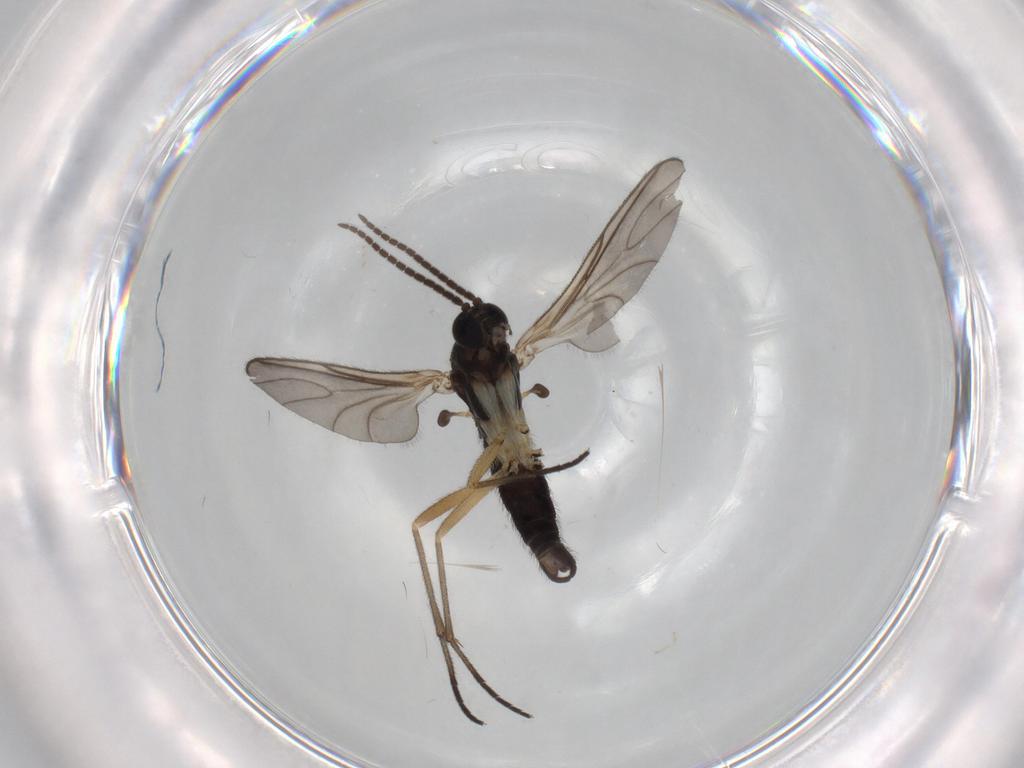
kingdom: Animalia
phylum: Arthropoda
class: Insecta
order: Diptera
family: Sciaridae
